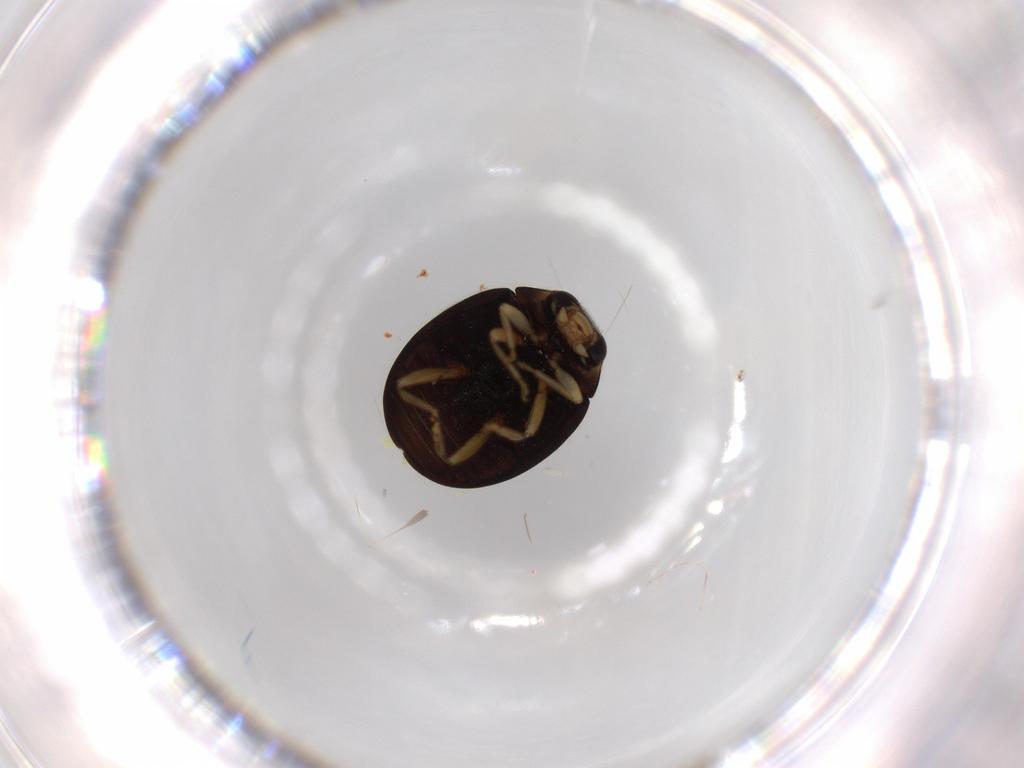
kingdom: Animalia
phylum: Arthropoda
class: Insecta
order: Coleoptera
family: Coccinellidae
